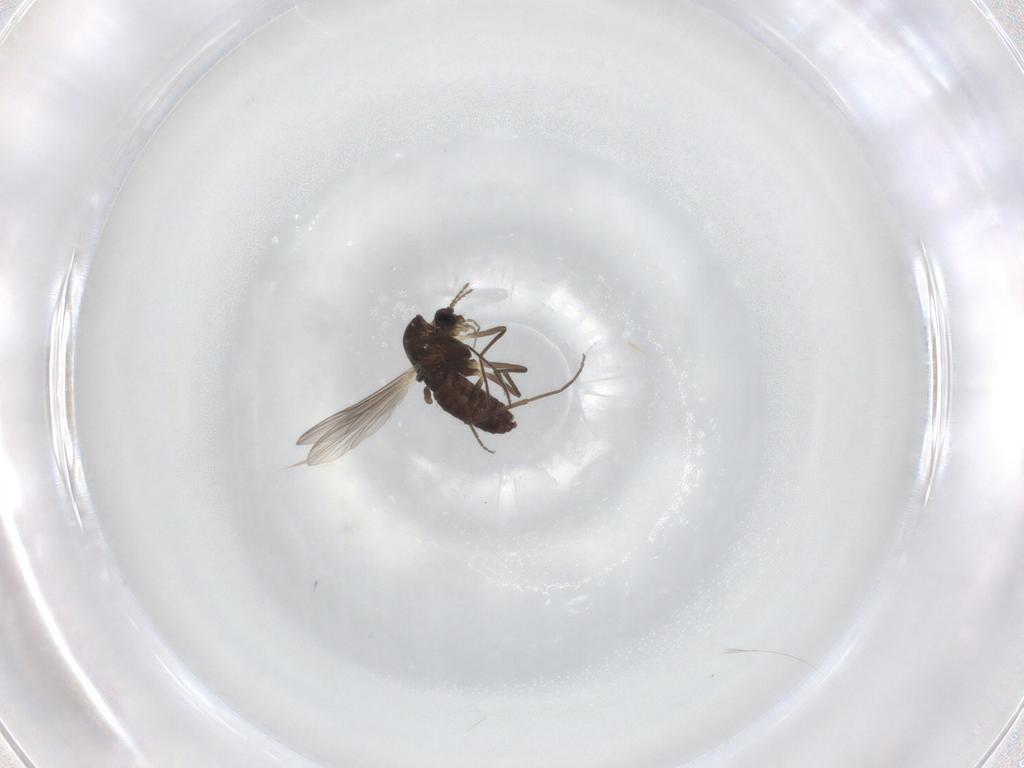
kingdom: Animalia
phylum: Arthropoda
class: Insecta
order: Diptera
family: Chironomidae
